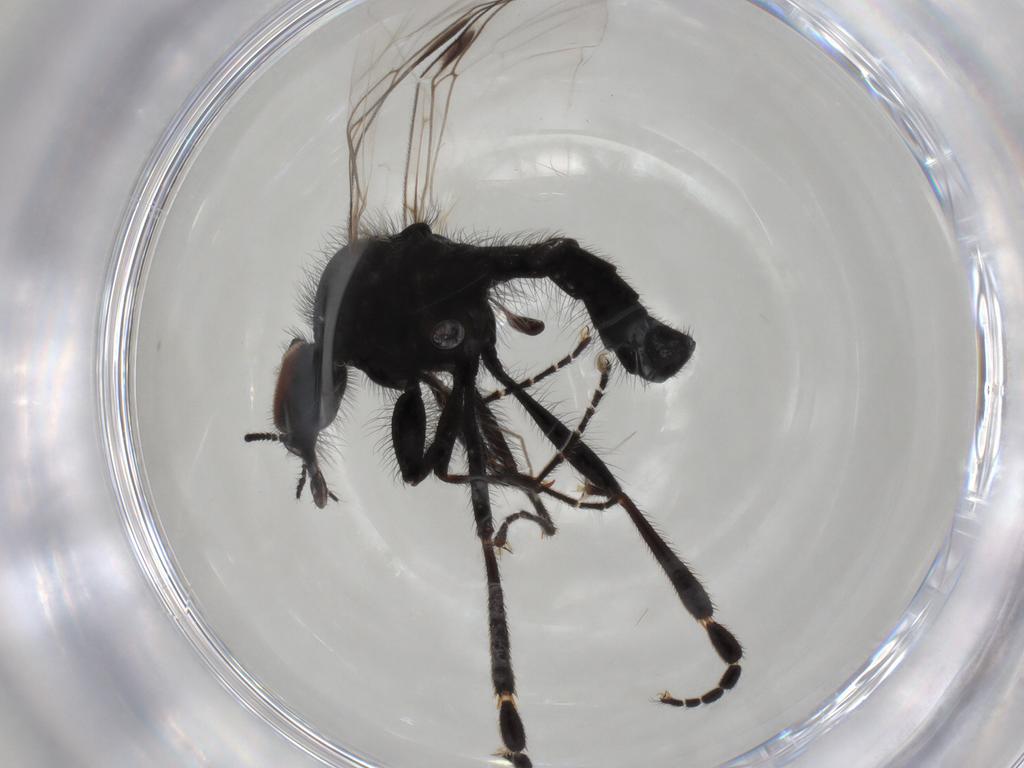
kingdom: Animalia
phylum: Arthropoda
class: Insecta
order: Diptera
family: Bibionidae
